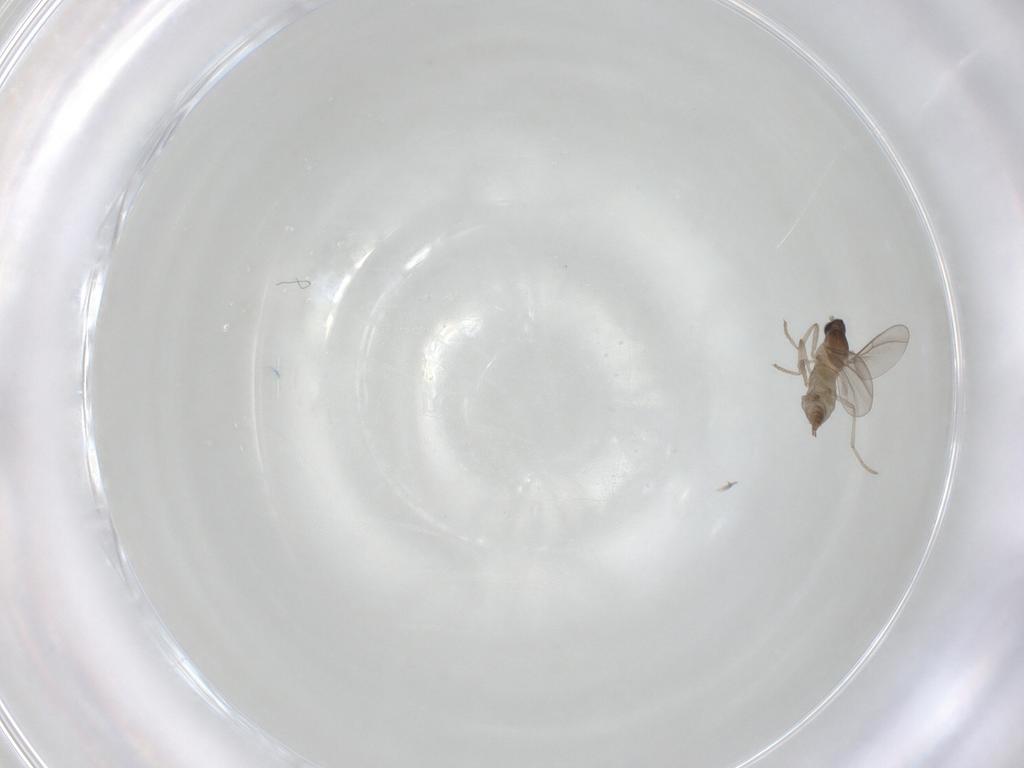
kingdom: Animalia
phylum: Arthropoda
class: Insecta
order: Diptera
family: Cecidomyiidae
